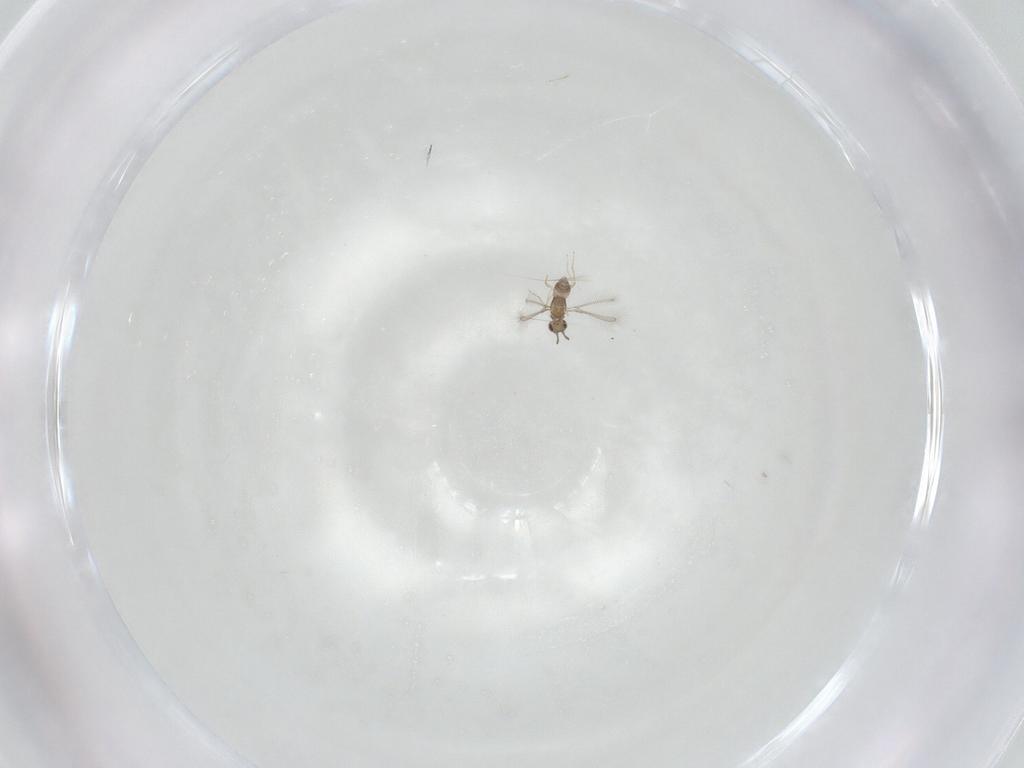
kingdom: Animalia
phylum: Arthropoda
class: Insecta
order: Hymenoptera
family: Mymaridae
